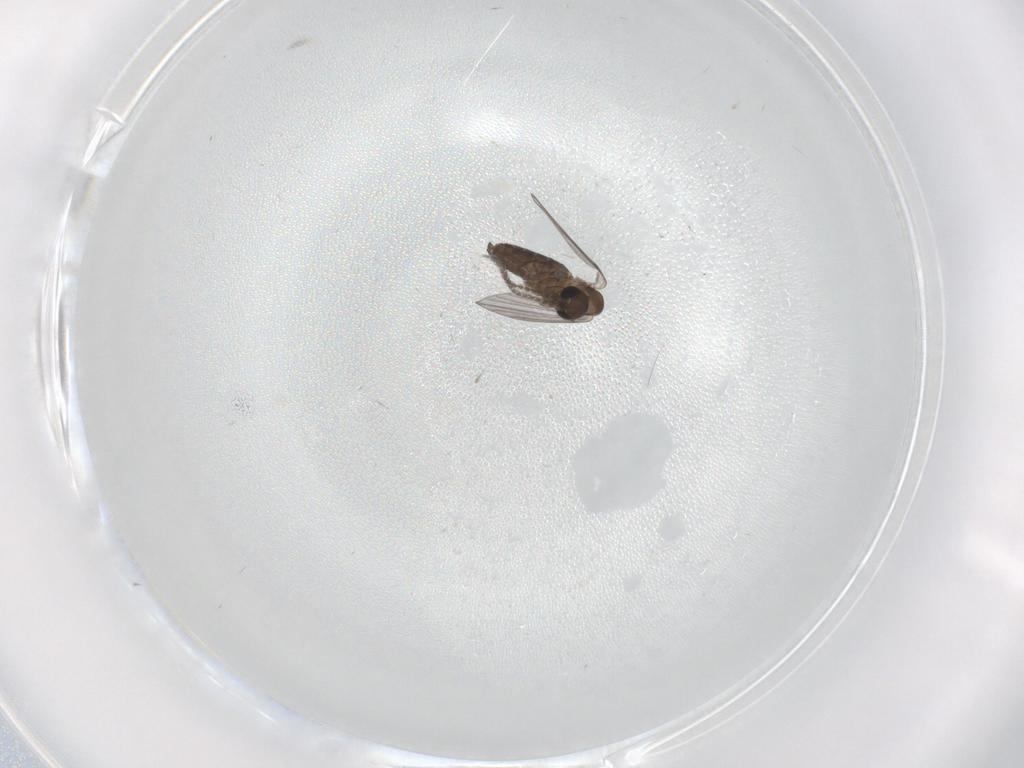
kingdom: Animalia
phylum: Arthropoda
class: Insecta
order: Diptera
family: Psychodidae
